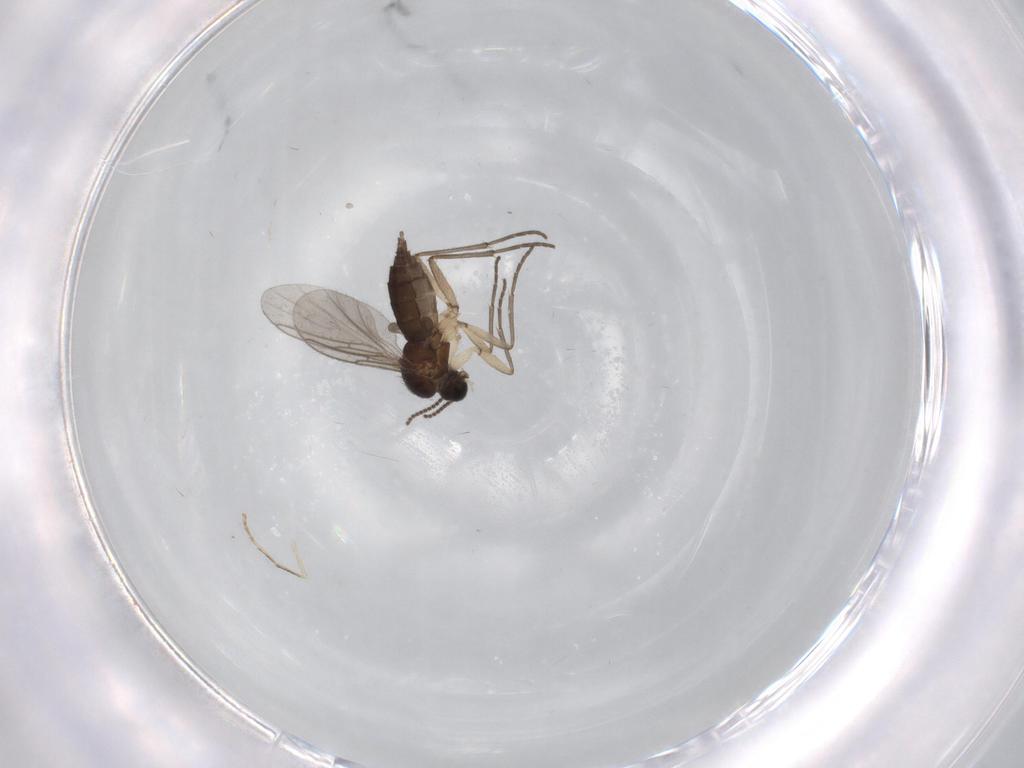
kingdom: Animalia
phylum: Arthropoda
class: Insecta
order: Diptera
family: Sciaridae
